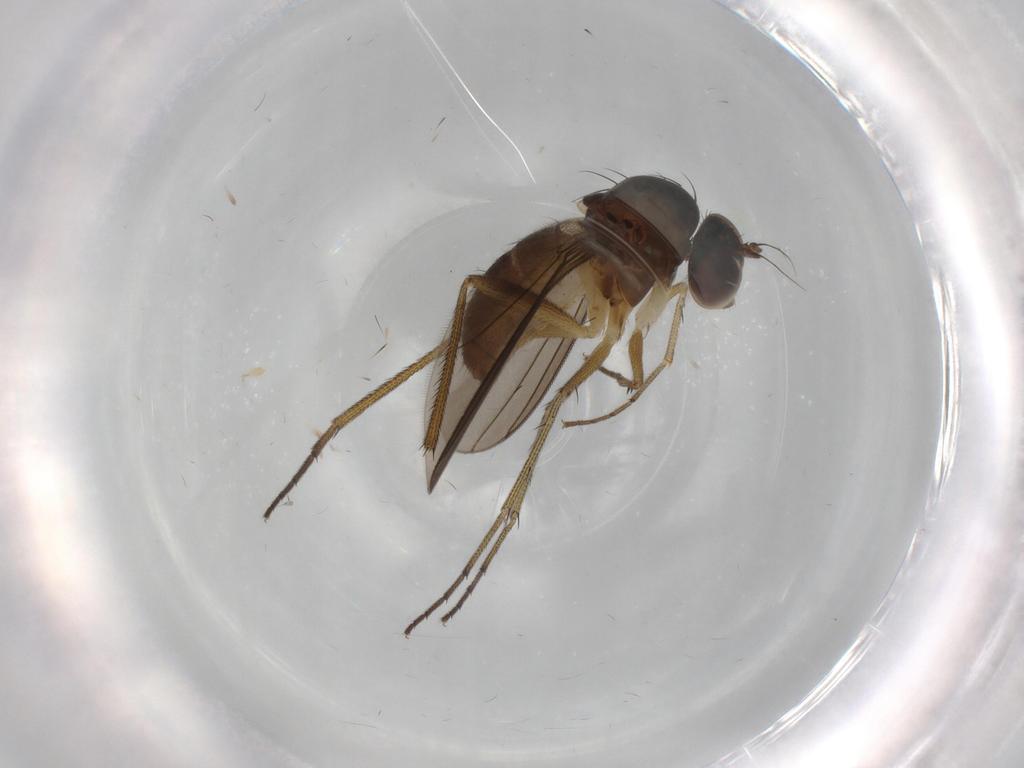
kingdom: Animalia
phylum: Arthropoda
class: Insecta
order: Diptera
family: Dolichopodidae
